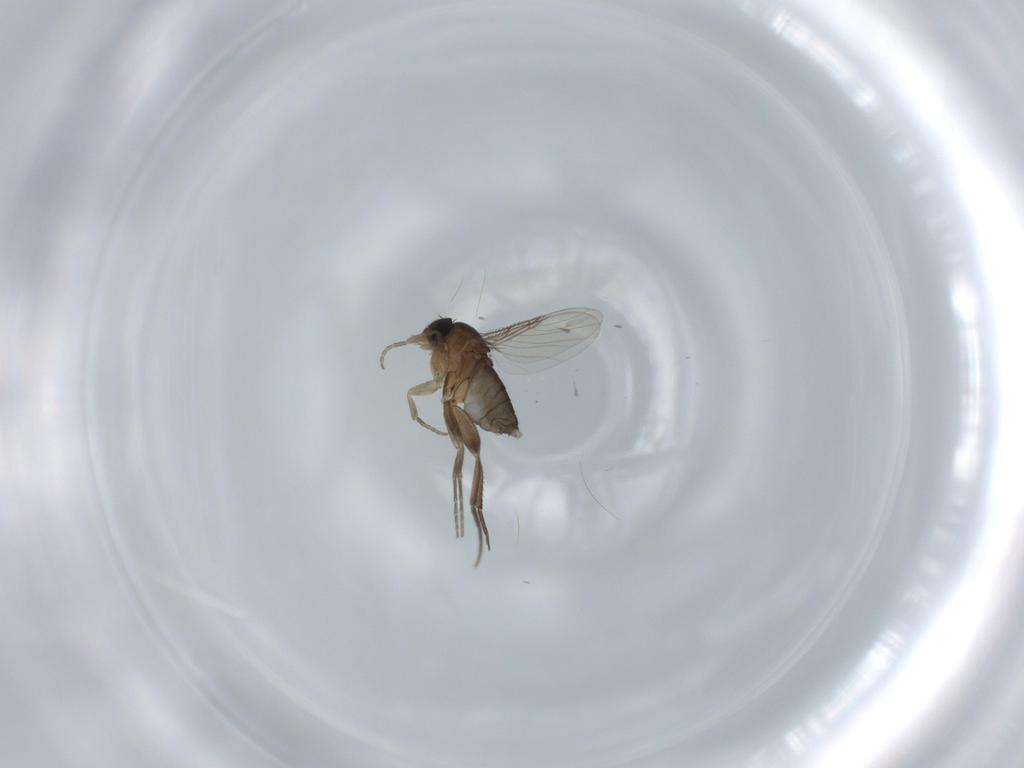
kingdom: Animalia
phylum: Arthropoda
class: Insecta
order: Diptera
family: Phoridae
